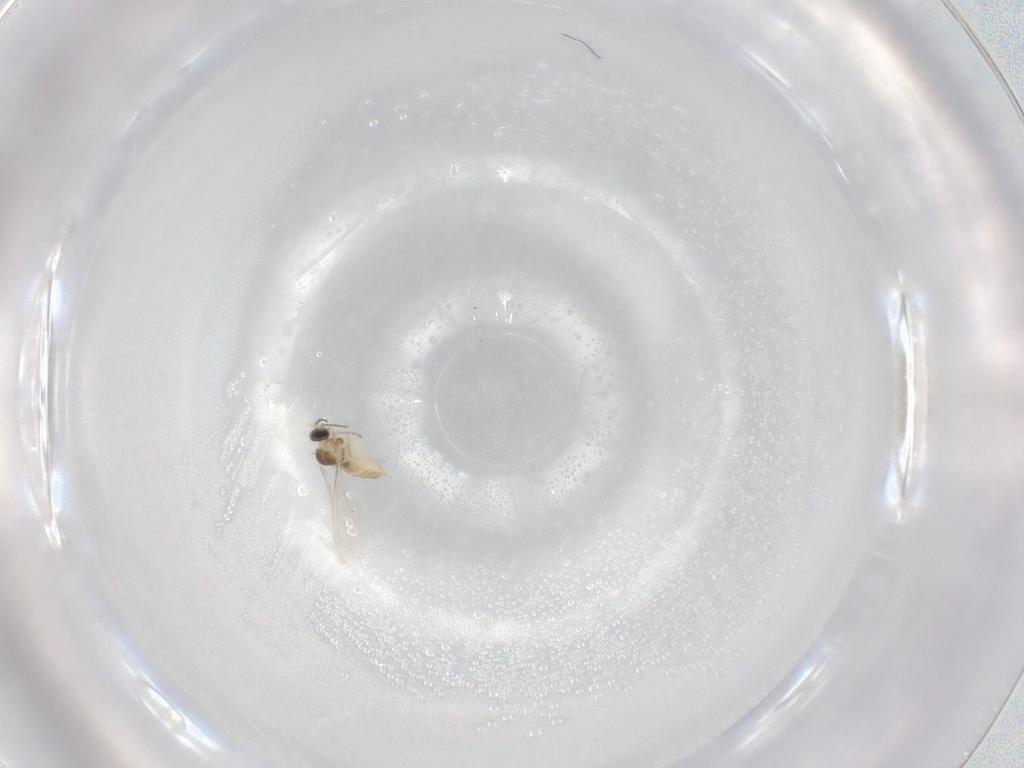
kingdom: Animalia
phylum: Arthropoda
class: Insecta
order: Diptera
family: Cecidomyiidae
